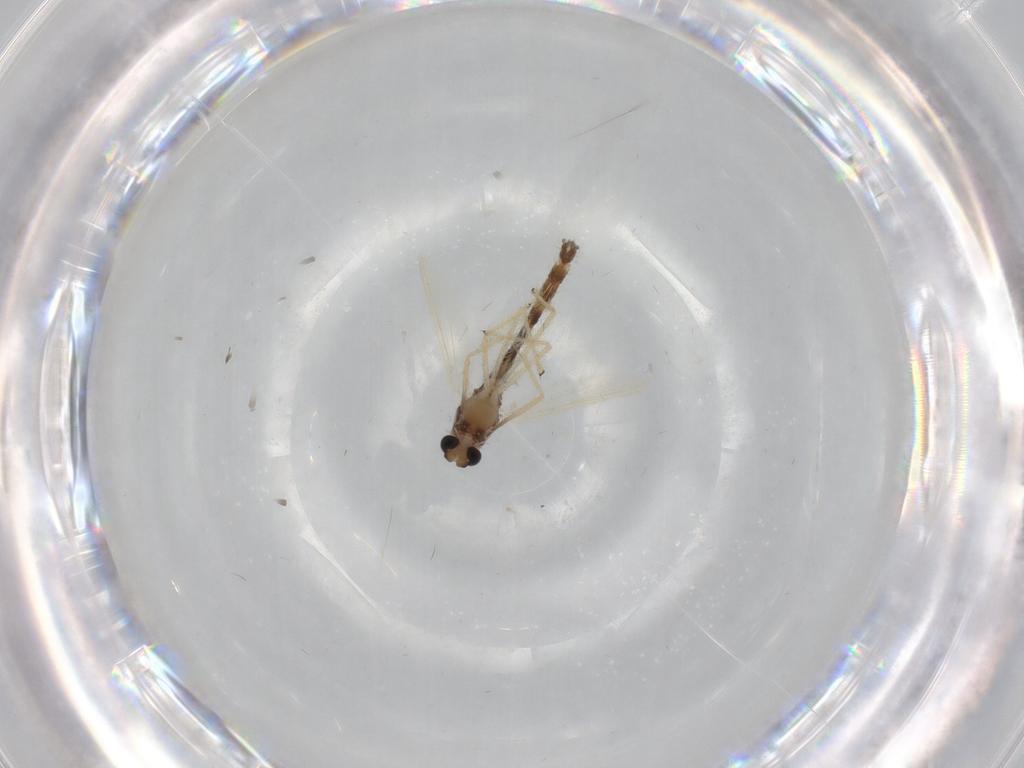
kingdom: Animalia
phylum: Arthropoda
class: Insecta
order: Diptera
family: Chironomidae
